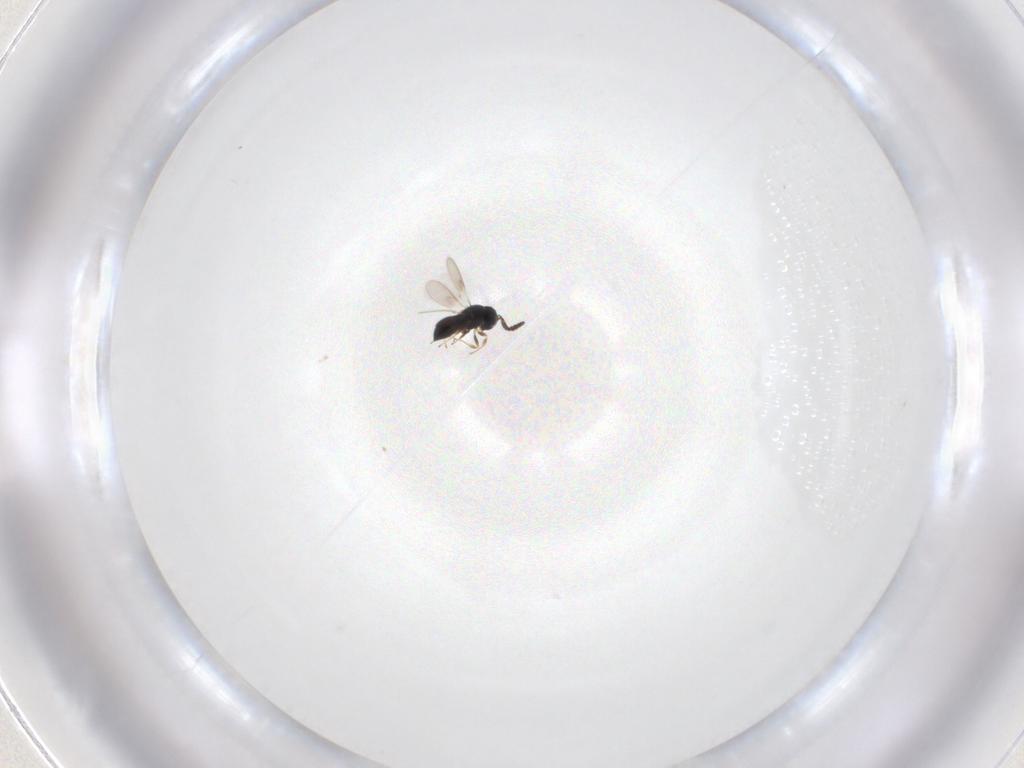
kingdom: Animalia
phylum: Arthropoda
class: Insecta
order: Hymenoptera
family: Scelionidae
